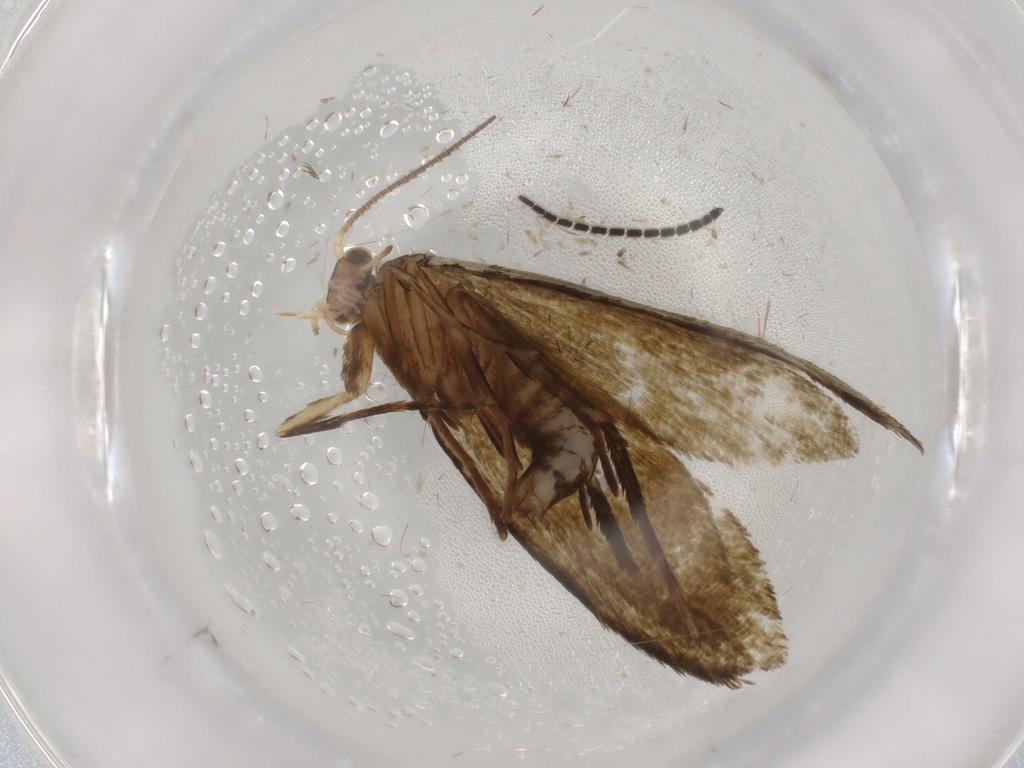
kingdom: Animalia
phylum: Arthropoda
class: Insecta
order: Lepidoptera
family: Tineidae
